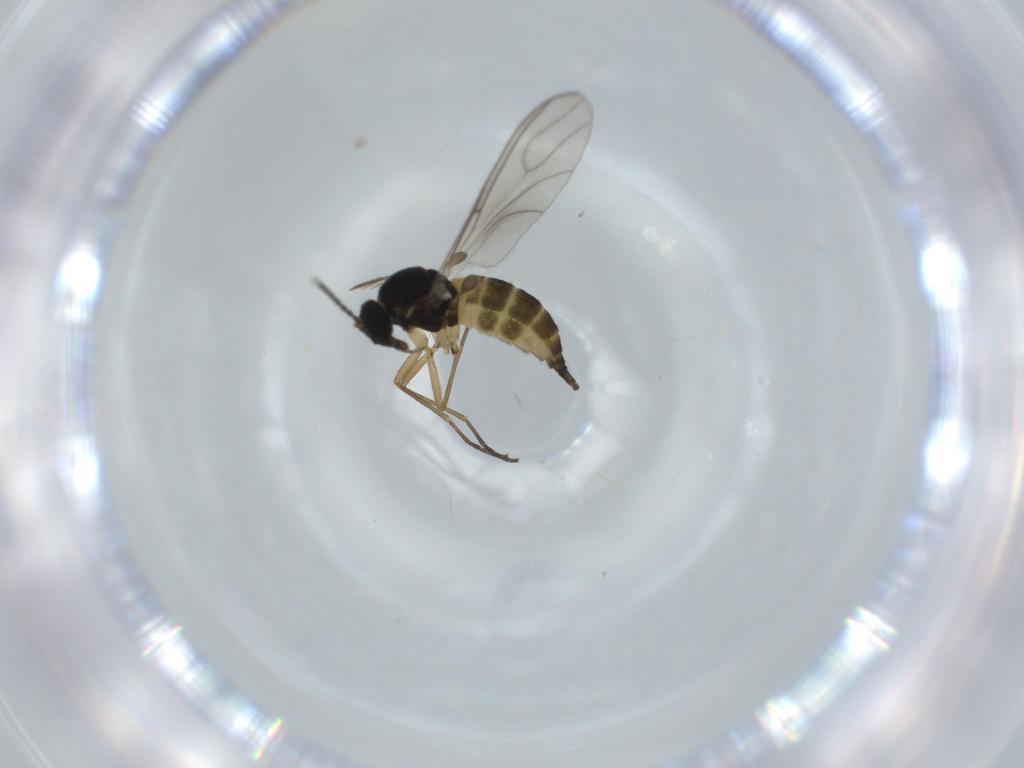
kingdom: Animalia
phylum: Arthropoda
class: Insecta
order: Diptera
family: Sciaridae
